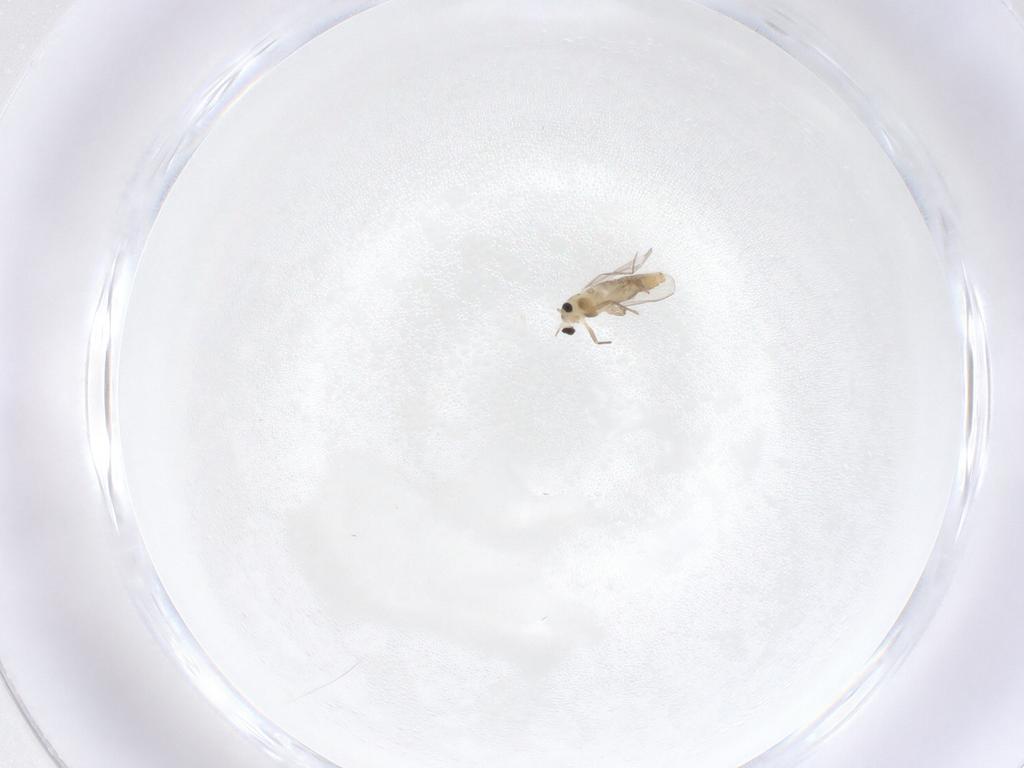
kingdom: Animalia
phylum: Arthropoda
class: Insecta
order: Diptera
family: Chironomidae
